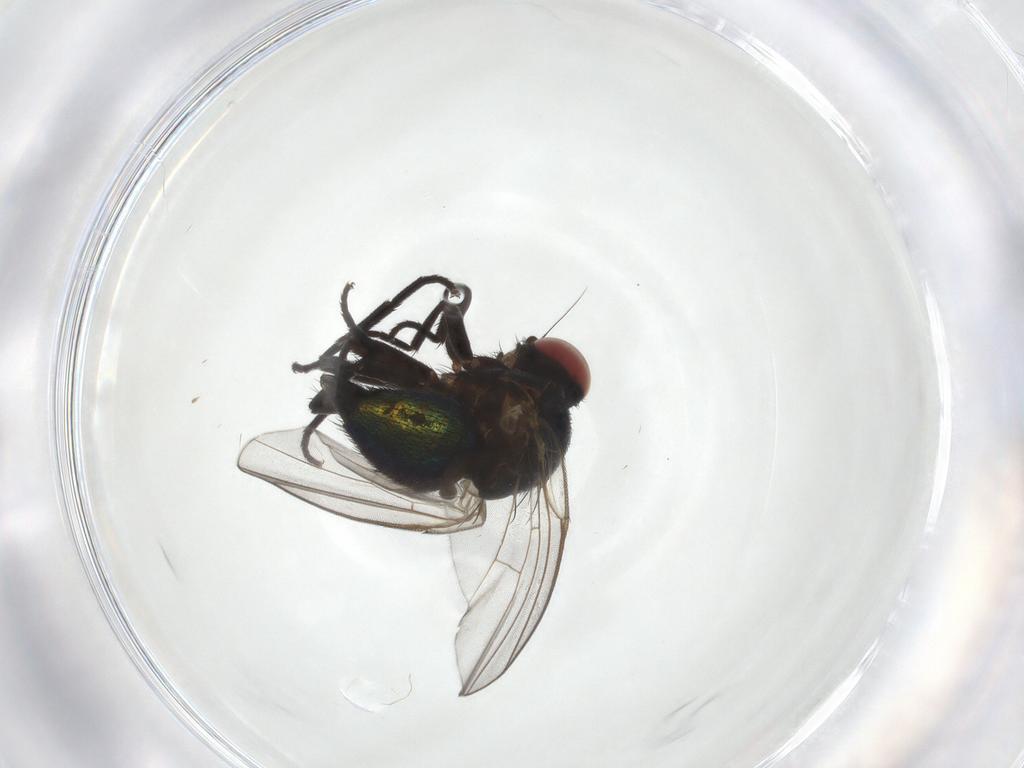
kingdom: Animalia
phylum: Arthropoda
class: Insecta
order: Diptera
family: Agromyzidae
